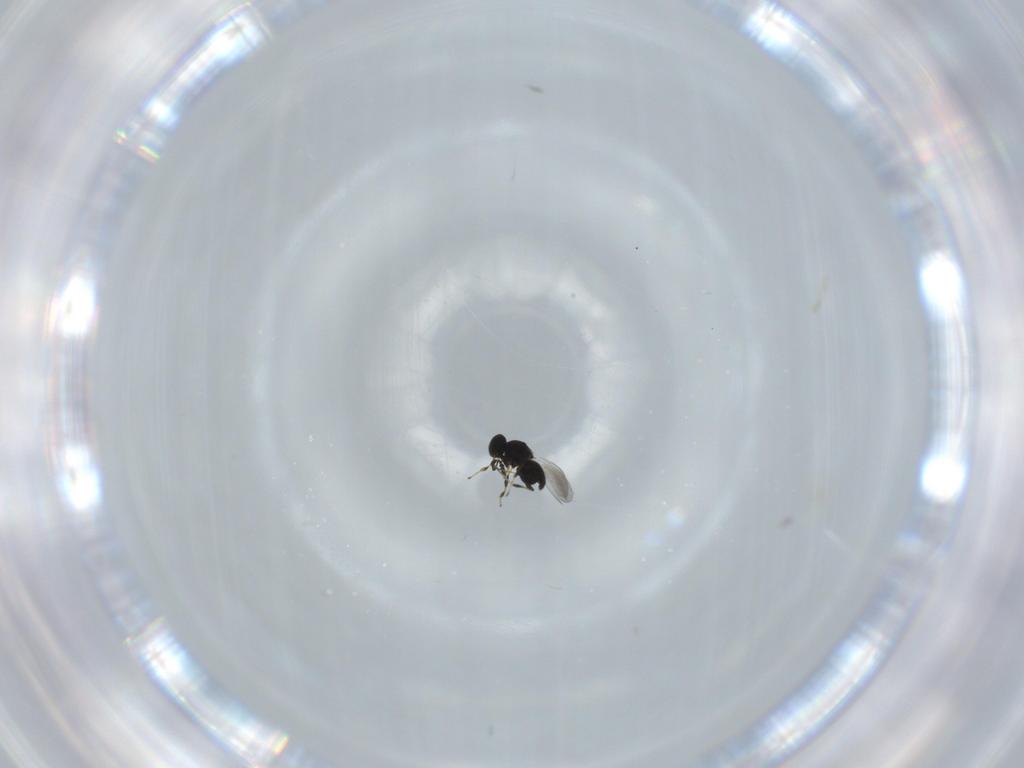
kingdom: Animalia
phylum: Arthropoda
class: Insecta
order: Hymenoptera
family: Platygastridae
